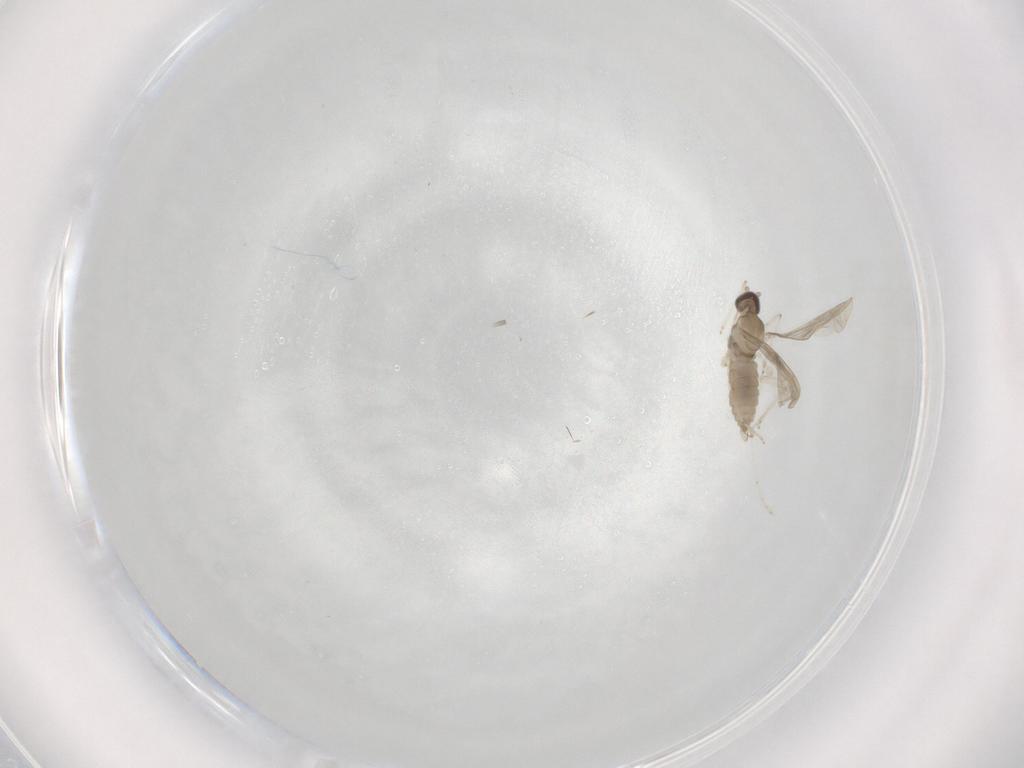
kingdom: Animalia
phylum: Arthropoda
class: Insecta
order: Diptera
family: Cecidomyiidae
